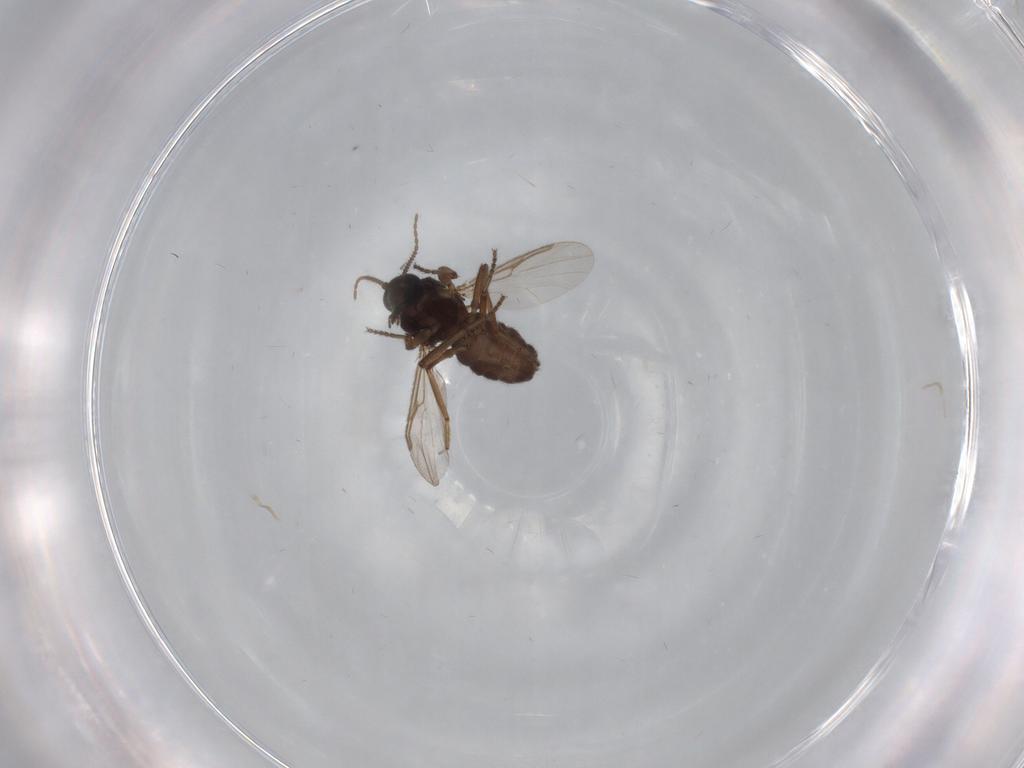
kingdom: Animalia
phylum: Arthropoda
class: Insecta
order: Diptera
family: Ceratopogonidae
